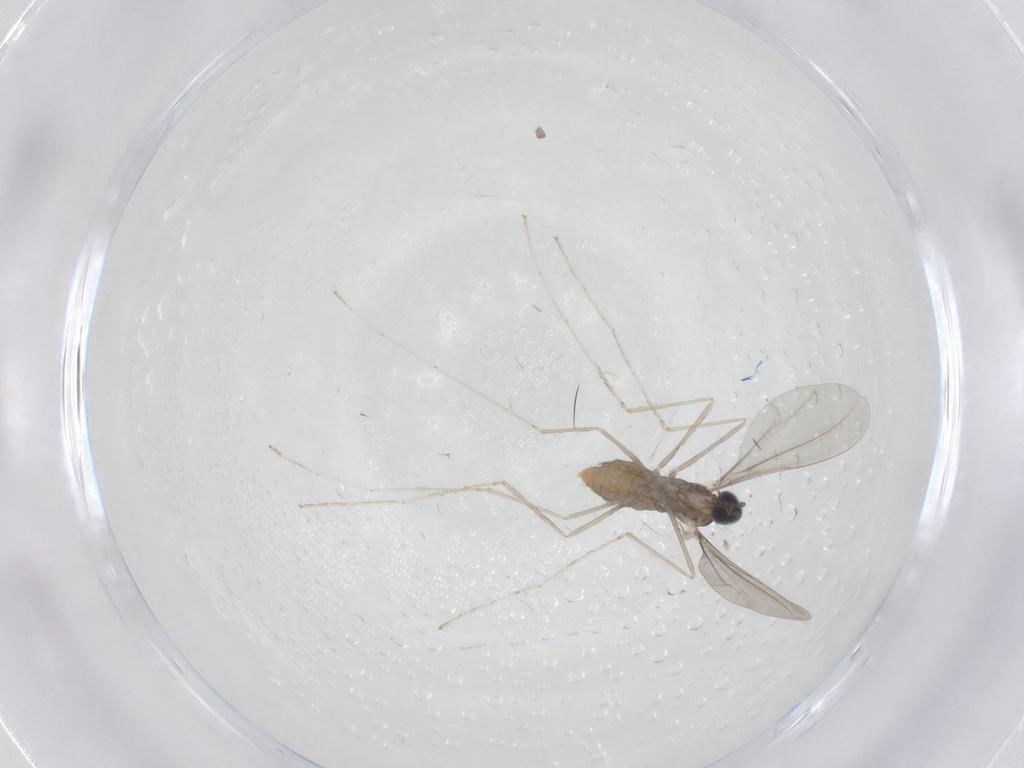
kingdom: Animalia
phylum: Arthropoda
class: Insecta
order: Diptera
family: Cecidomyiidae
